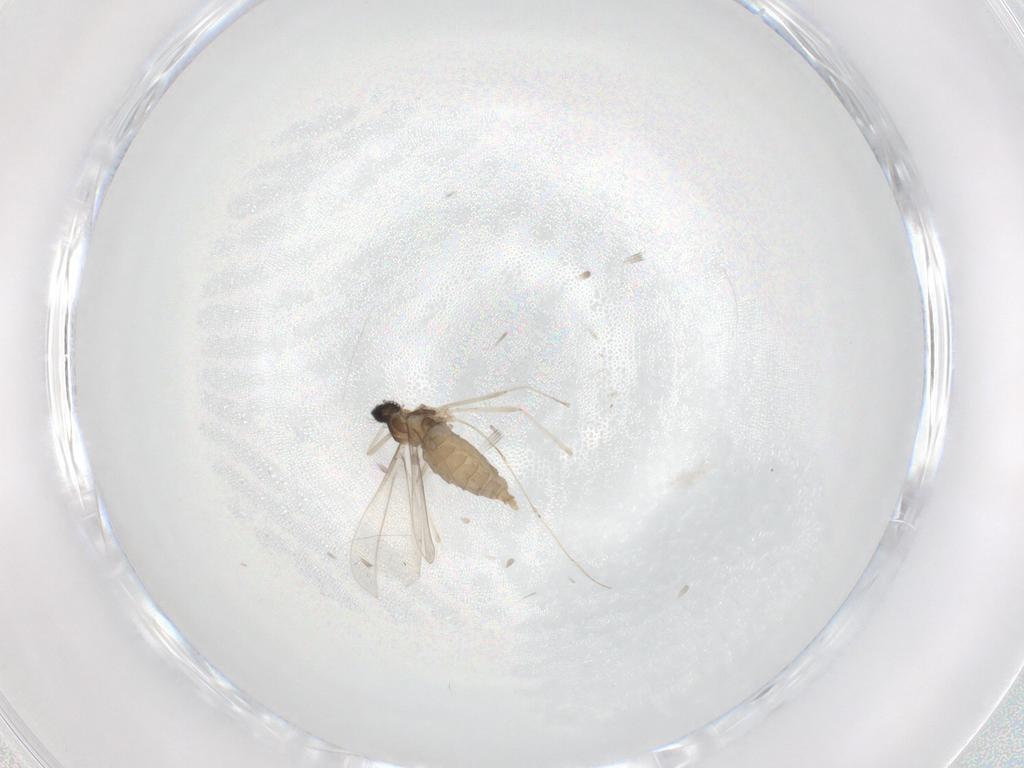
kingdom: Animalia
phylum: Arthropoda
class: Insecta
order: Diptera
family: Cecidomyiidae
